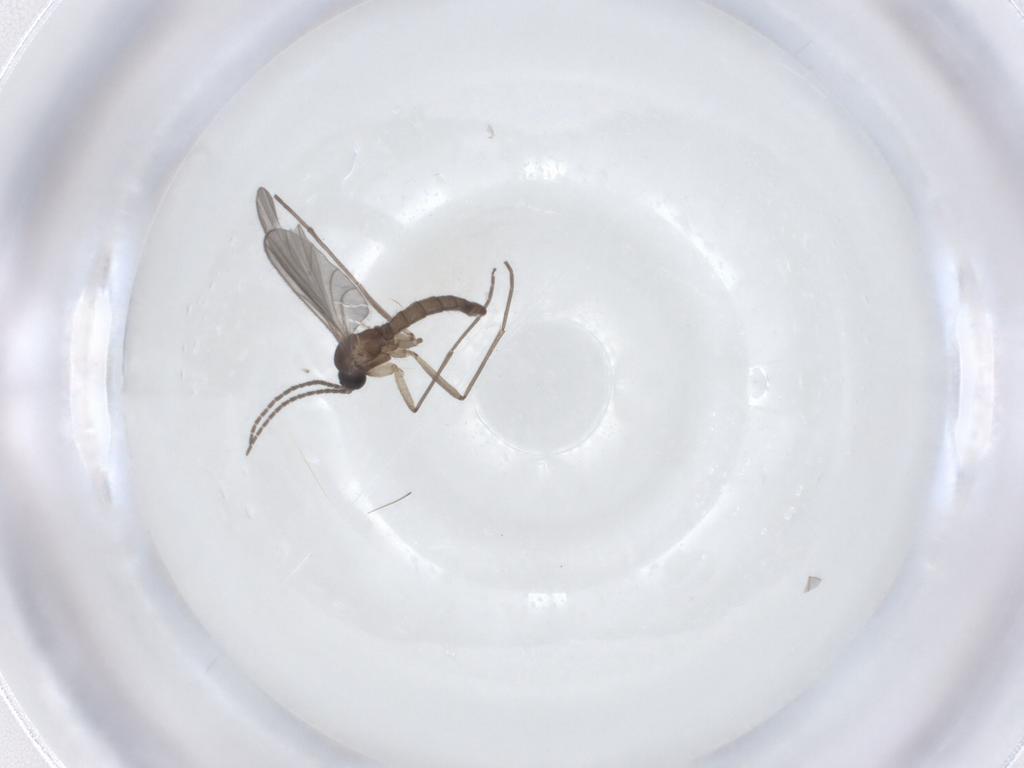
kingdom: Animalia
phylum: Arthropoda
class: Insecta
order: Diptera
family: Sciaridae
